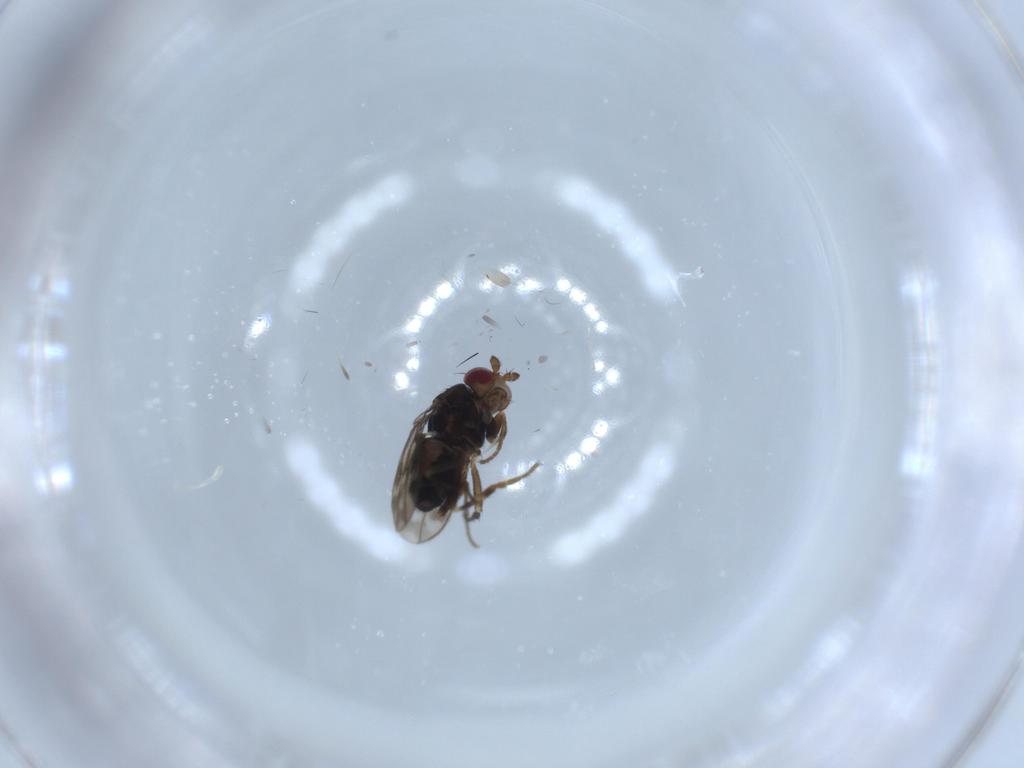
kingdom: Animalia
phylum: Arthropoda
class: Insecta
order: Diptera
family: Sphaeroceridae
